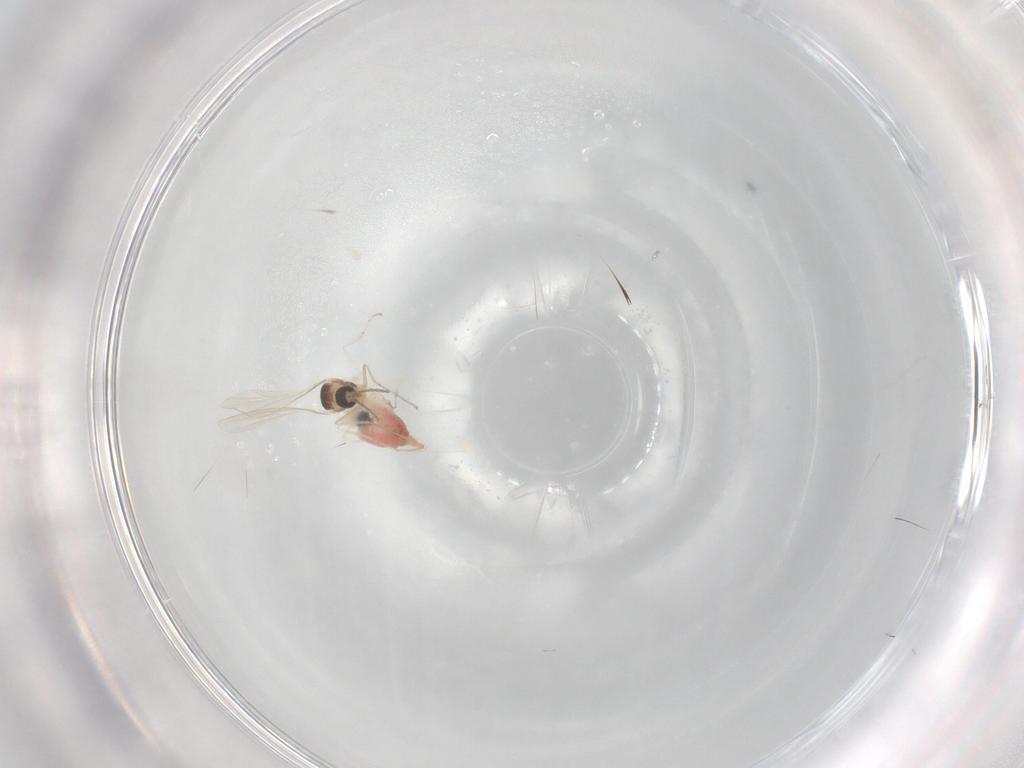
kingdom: Animalia
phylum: Arthropoda
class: Insecta
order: Diptera
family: Cecidomyiidae
